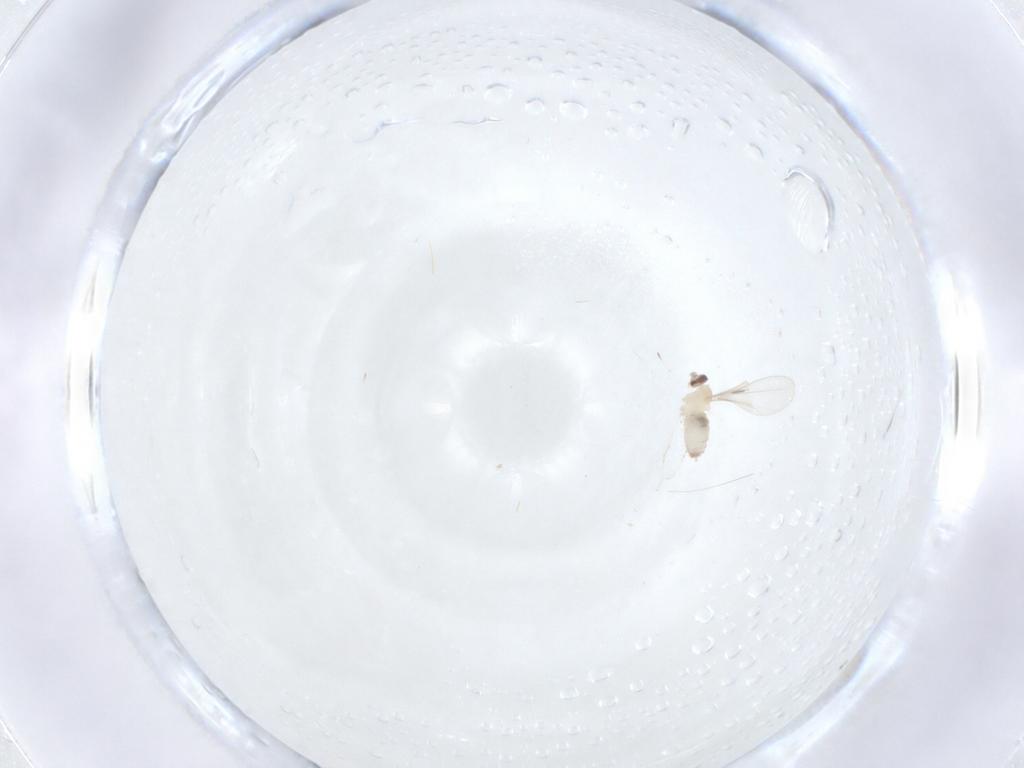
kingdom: Animalia
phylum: Arthropoda
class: Insecta
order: Diptera
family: Cecidomyiidae
